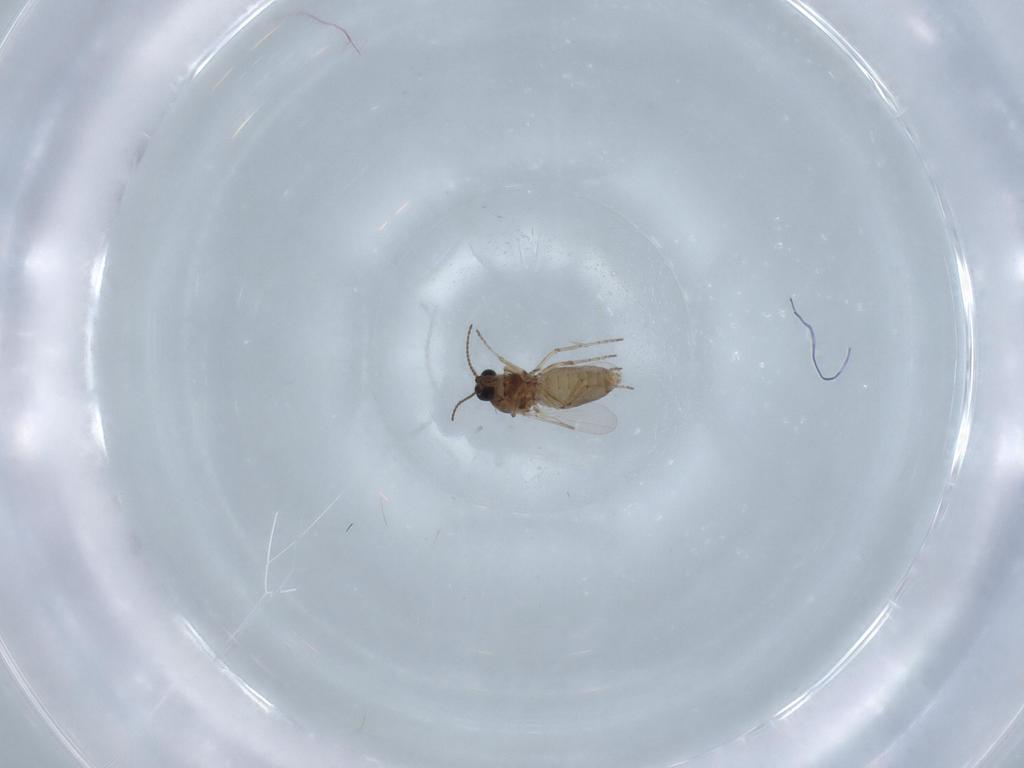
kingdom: Animalia
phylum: Arthropoda
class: Insecta
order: Diptera
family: Ceratopogonidae
